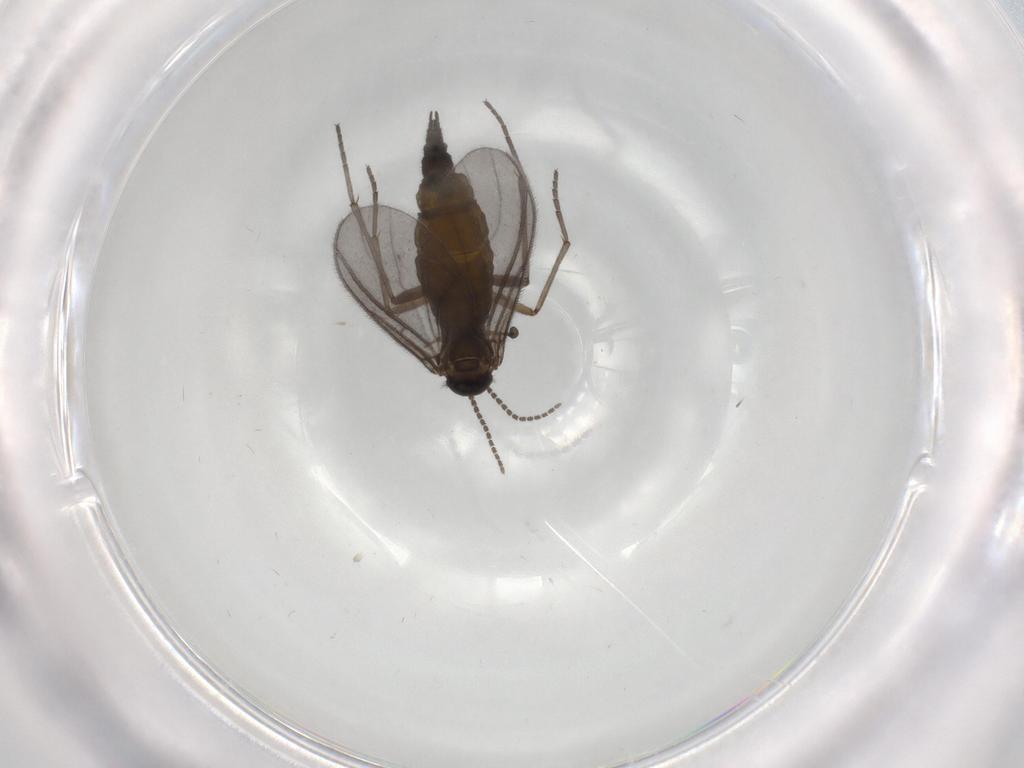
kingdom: Animalia
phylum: Arthropoda
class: Insecta
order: Diptera
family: Sciaridae
